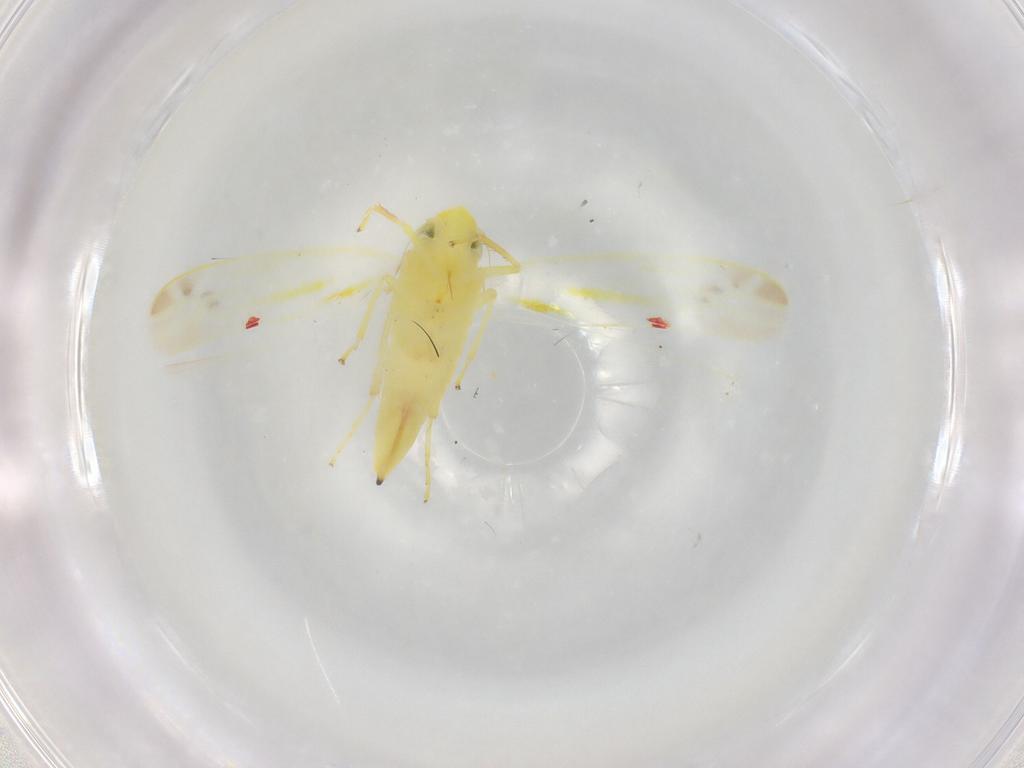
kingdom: Animalia
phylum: Arthropoda
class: Insecta
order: Hemiptera
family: Cicadellidae
